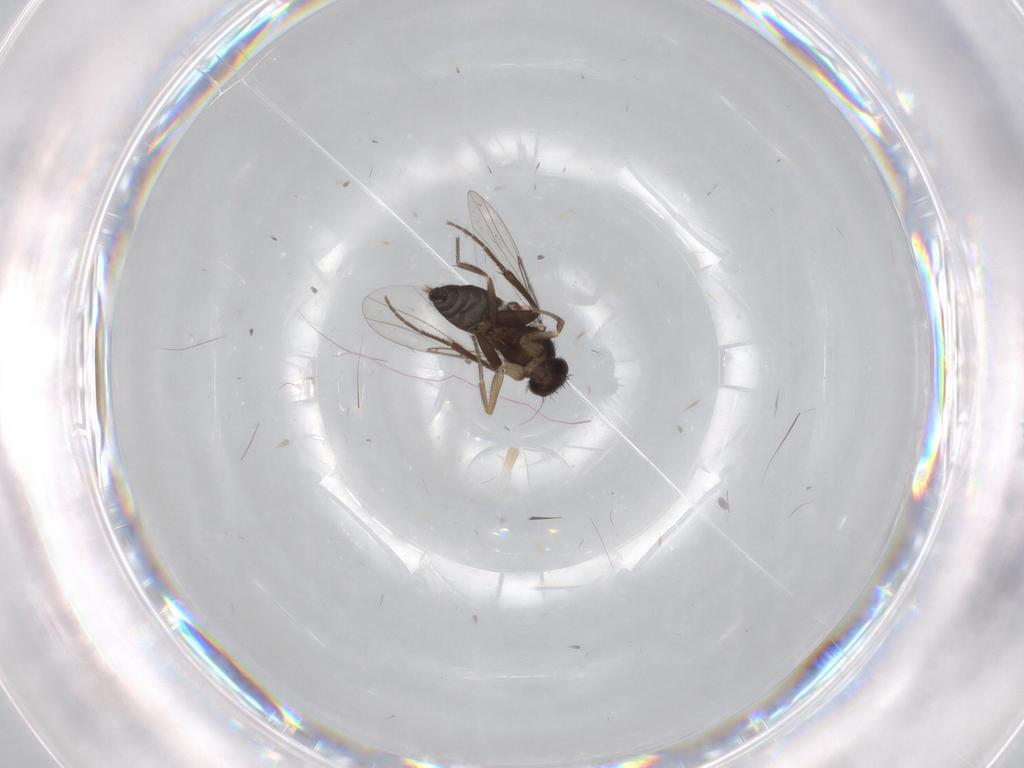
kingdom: Animalia
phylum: Arthropoda
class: Insecta
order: Diptera
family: Phoridae
